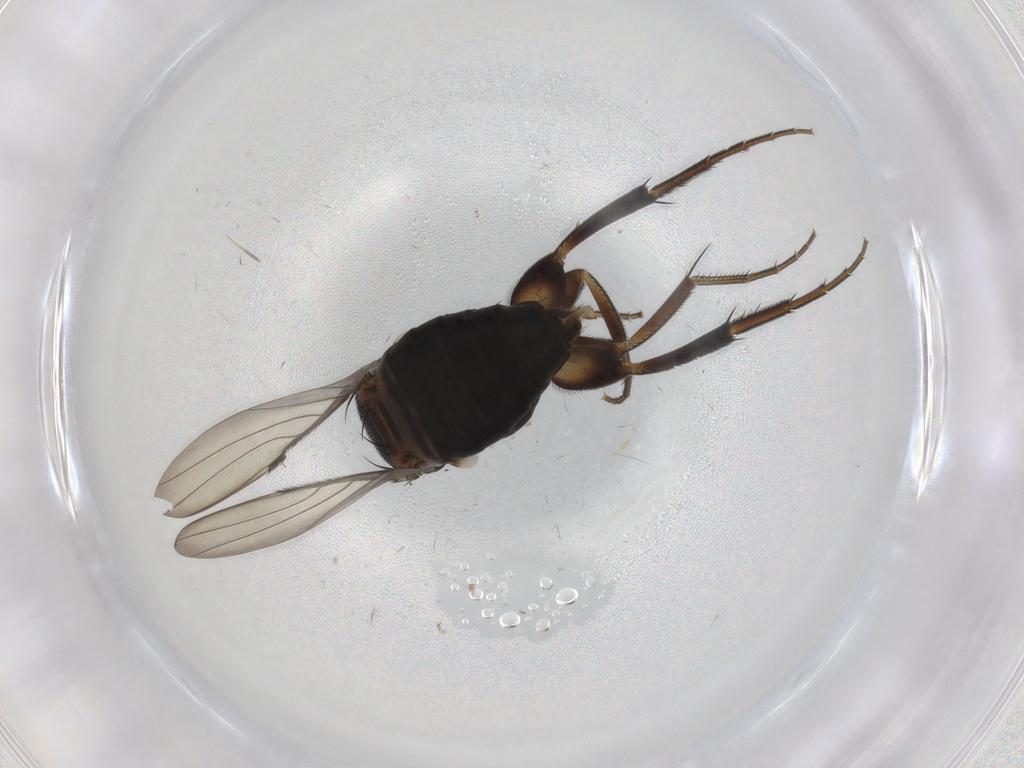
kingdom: Animalia
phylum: Arthropoda
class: Insecta
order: Diptera
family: Phoridae
